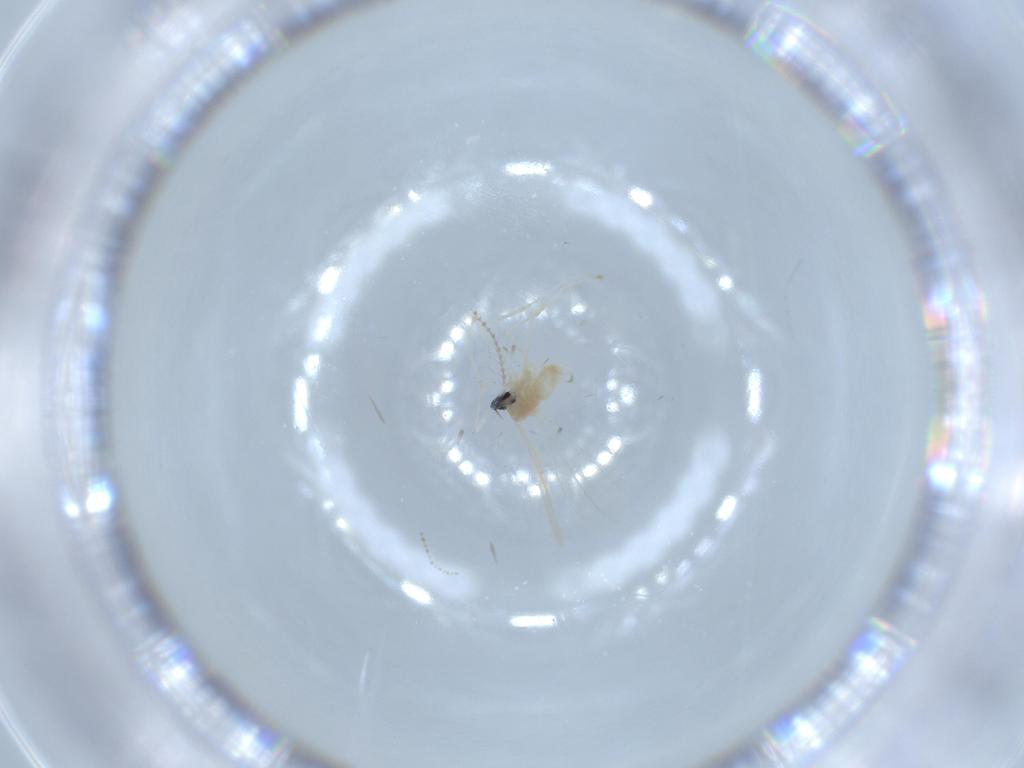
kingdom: Animalia
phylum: Arthropoda
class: Insecta
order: Diptera
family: Cecidomyiidae
